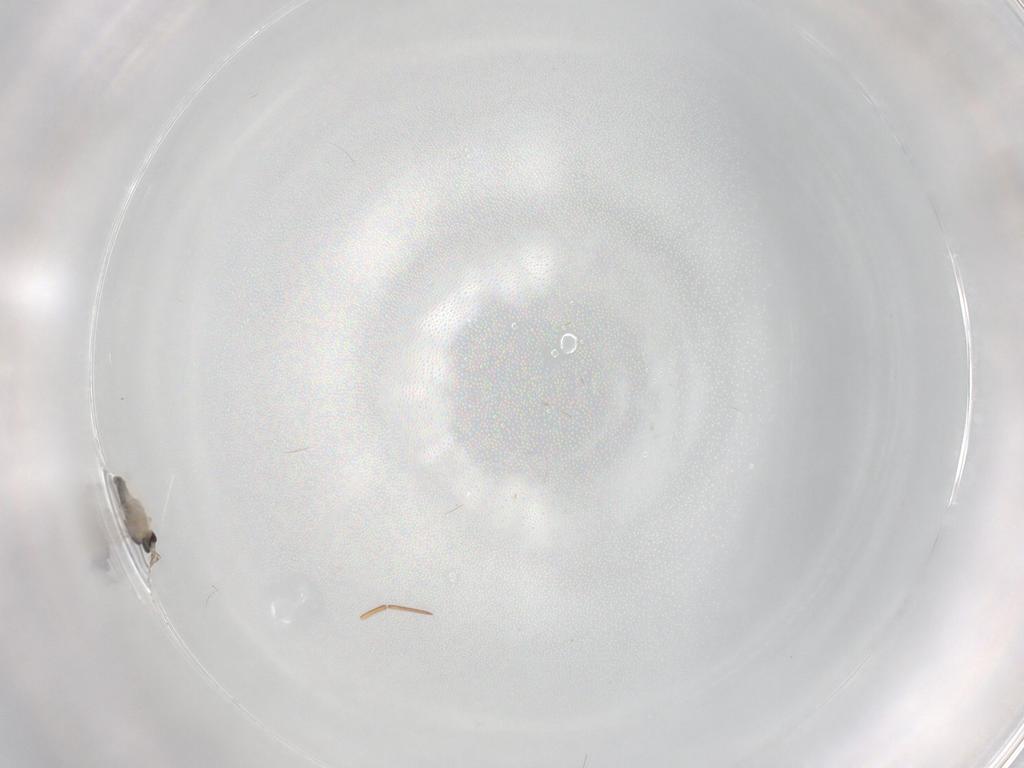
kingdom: Animalia
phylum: Arthropoda
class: Insecta
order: Diptera
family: Cecidomyiidae
